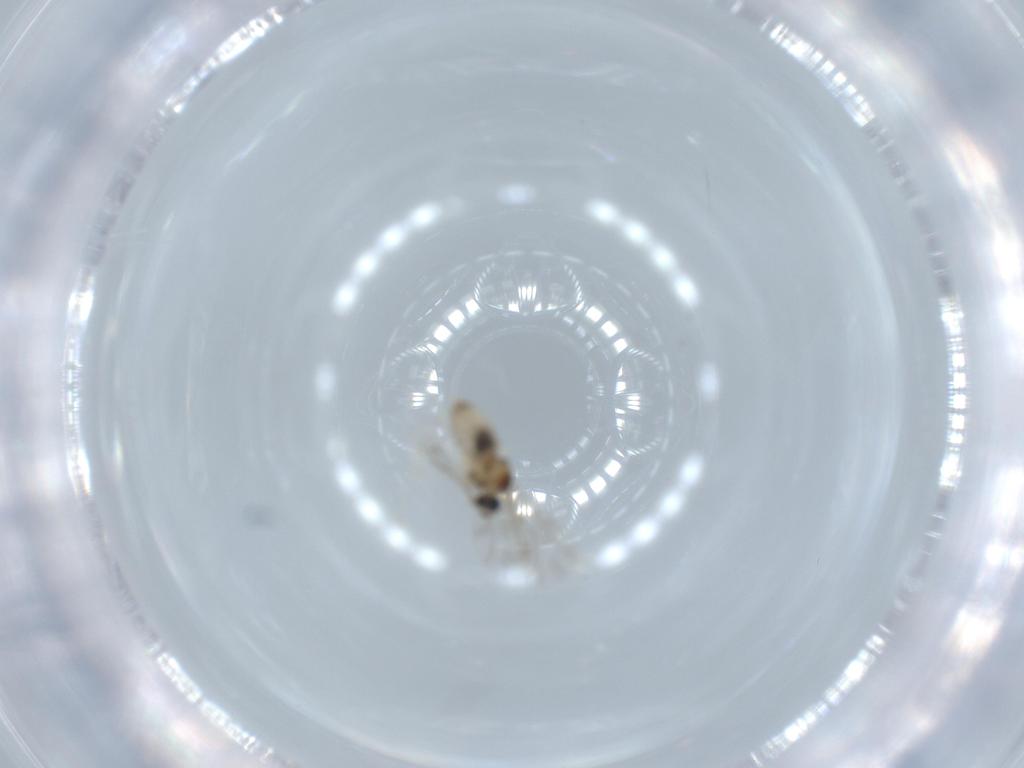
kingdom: Animalia
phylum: Arthropoda
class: Insecta
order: Diptera
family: Cecidomyiidae
